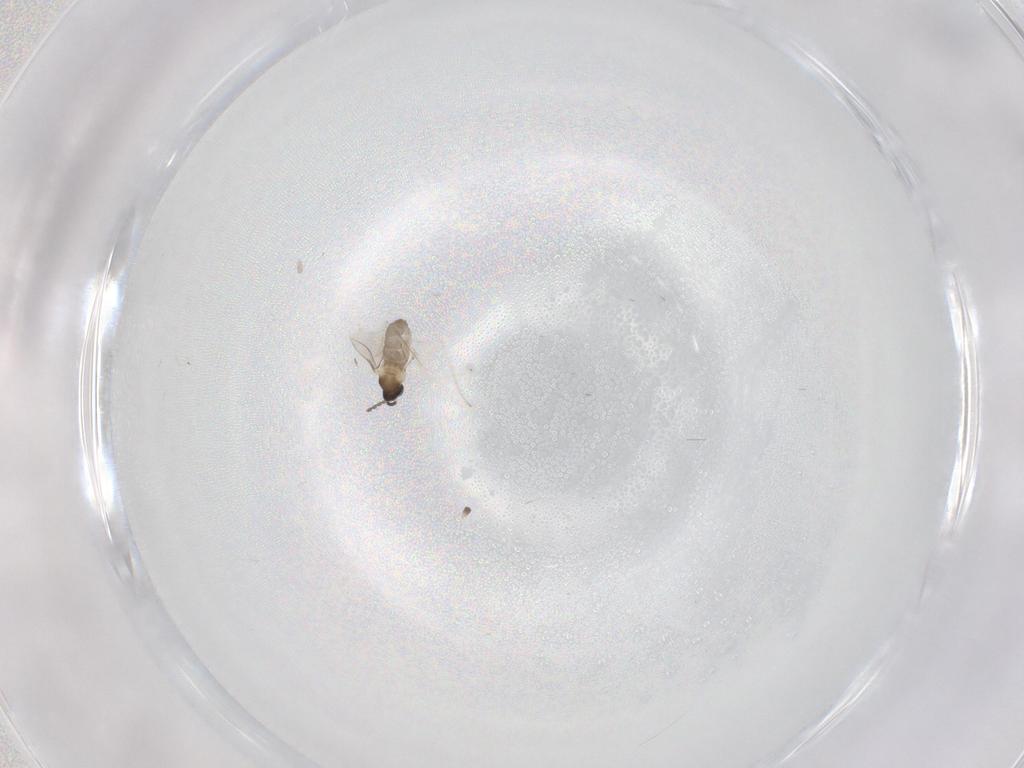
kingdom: Animalia
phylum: Arthropoda
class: Insecta
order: Diptera
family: Cecidomyiidae
